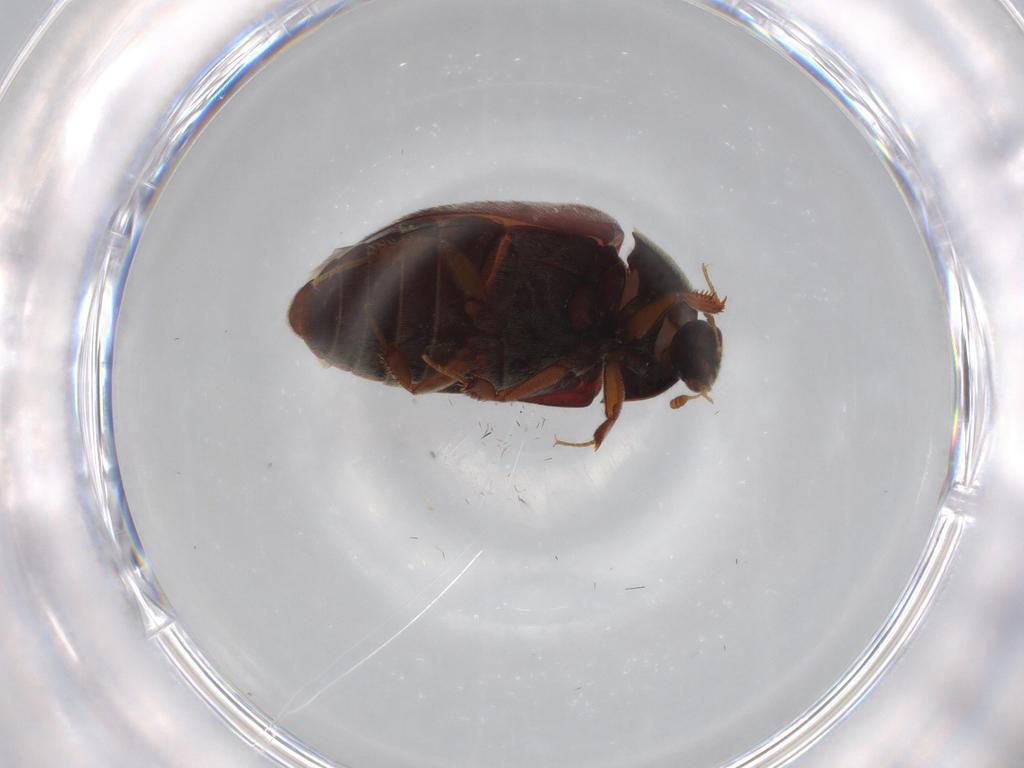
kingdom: Animalia
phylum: Arthropoda
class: Insecta
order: Coleoptera
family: Dermestidae
